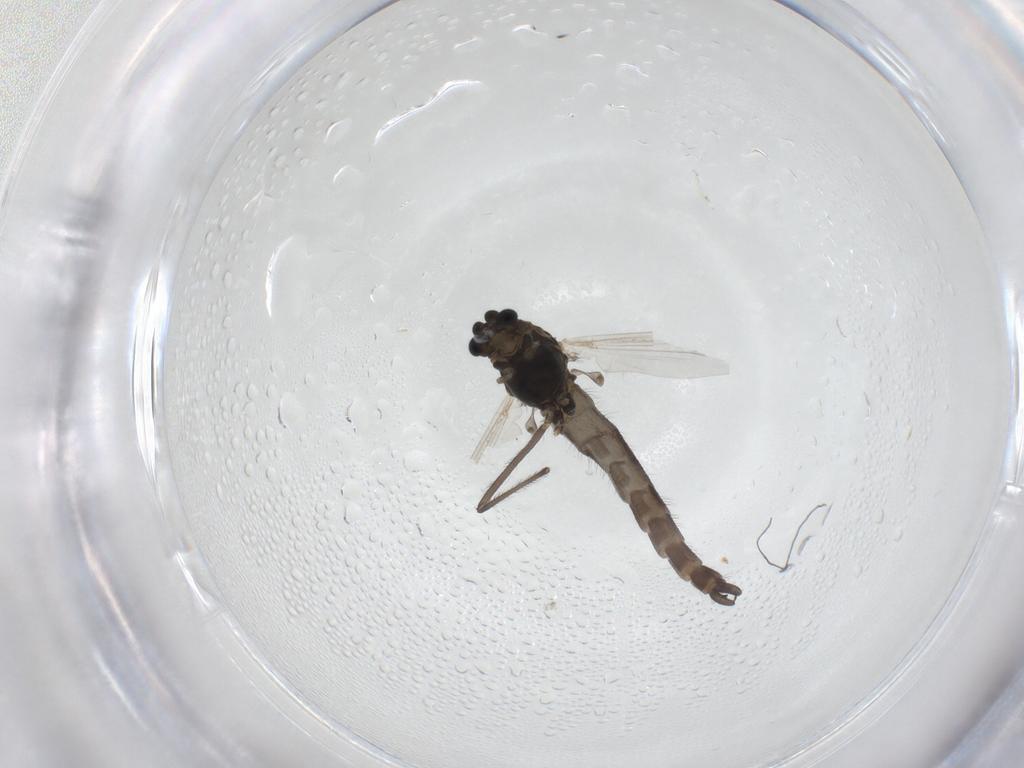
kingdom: Animalia
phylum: Arthropoda
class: Insecta
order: Diptera
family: Chironomidae
